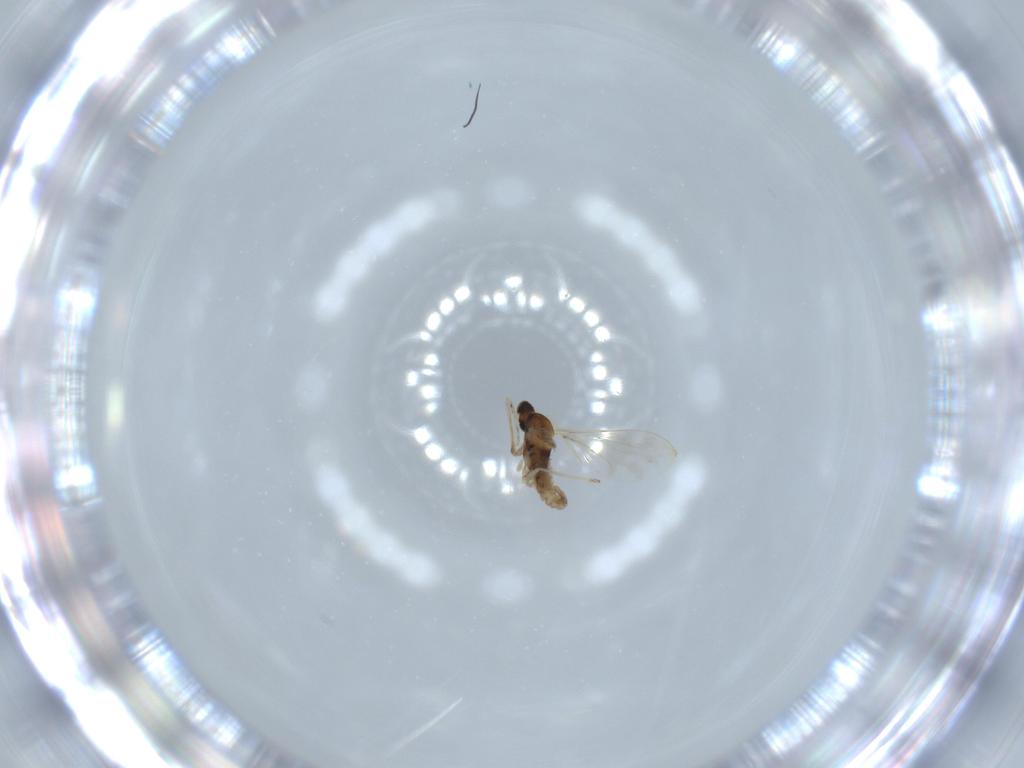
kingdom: Animalia
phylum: Arthropoda
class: Insecta
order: Diptera
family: Cecidomyiidae
